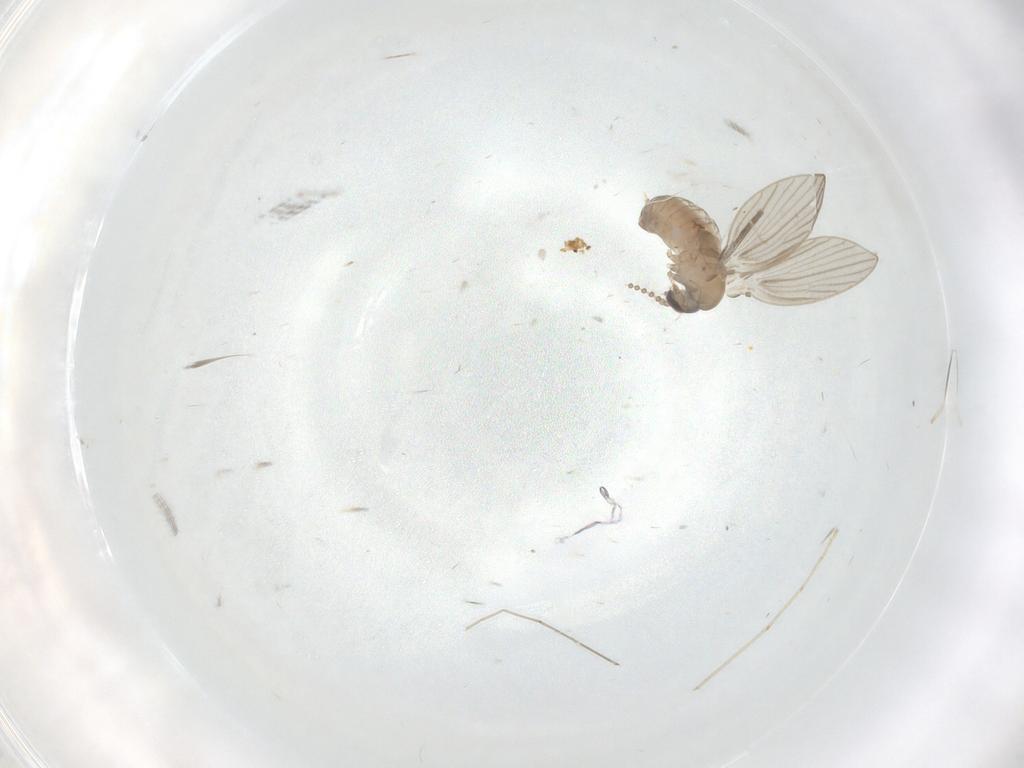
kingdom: Animalia
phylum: Arthropoda
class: Insecta
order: Diptera
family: Psychodidae
